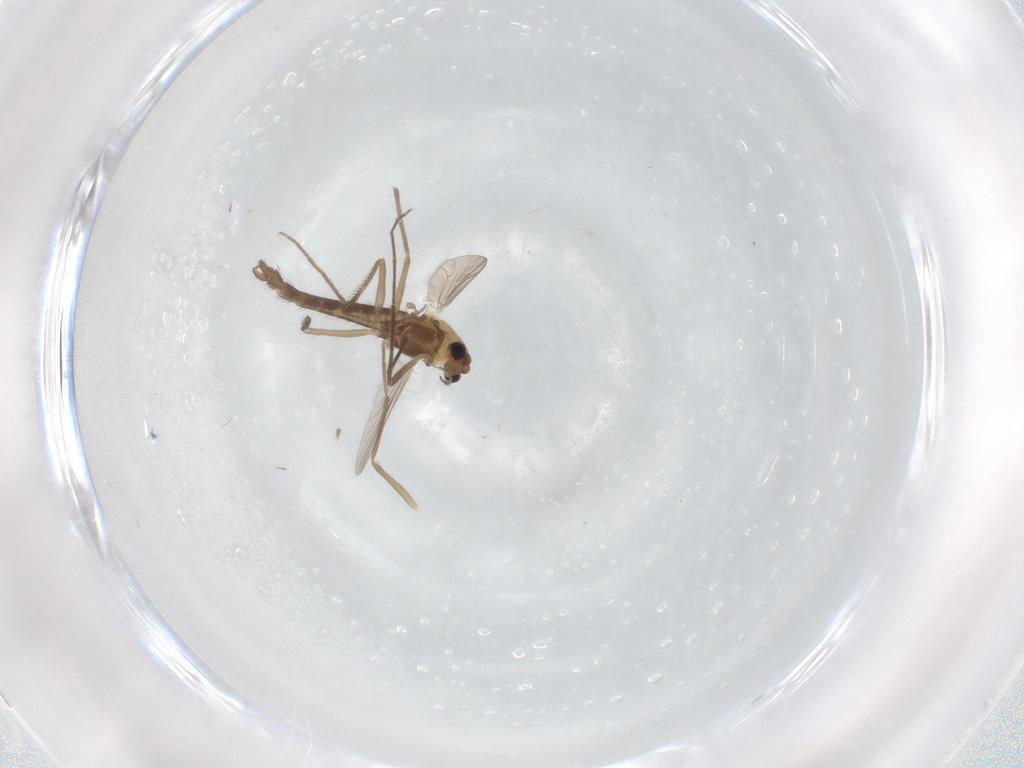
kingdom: Animalia
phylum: Arthropoda
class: Insecta
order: Diptera
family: Chironomidae
